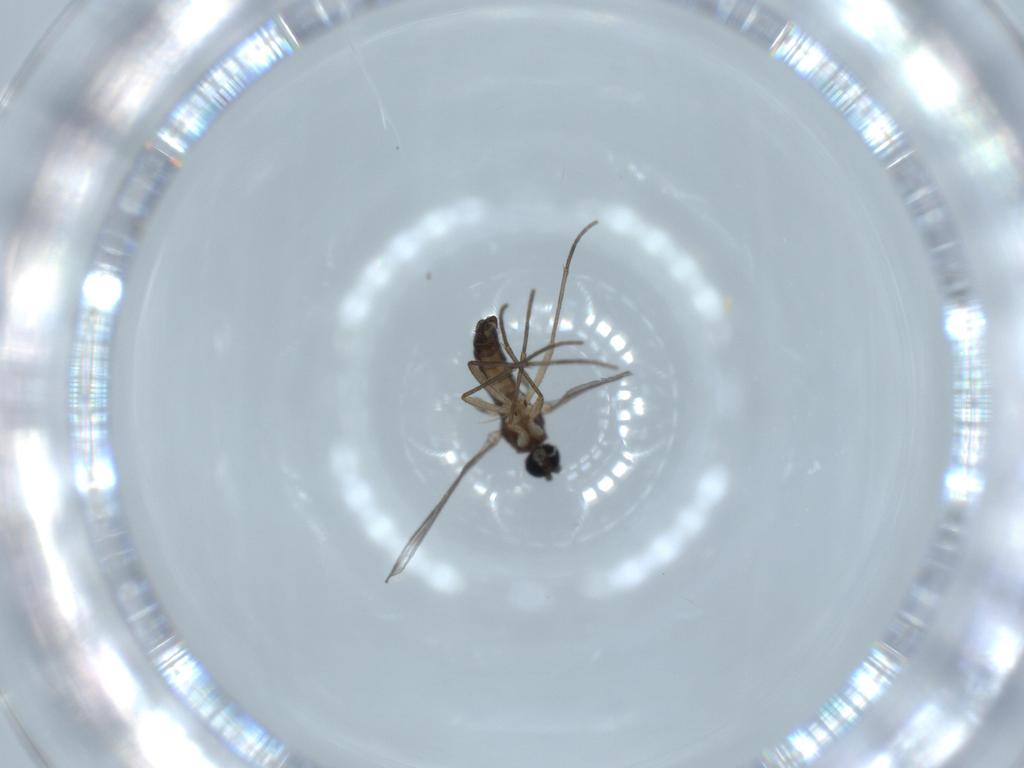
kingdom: Animalia
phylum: Arthropoda
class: Insecta
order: Diptera
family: Sciaridae
